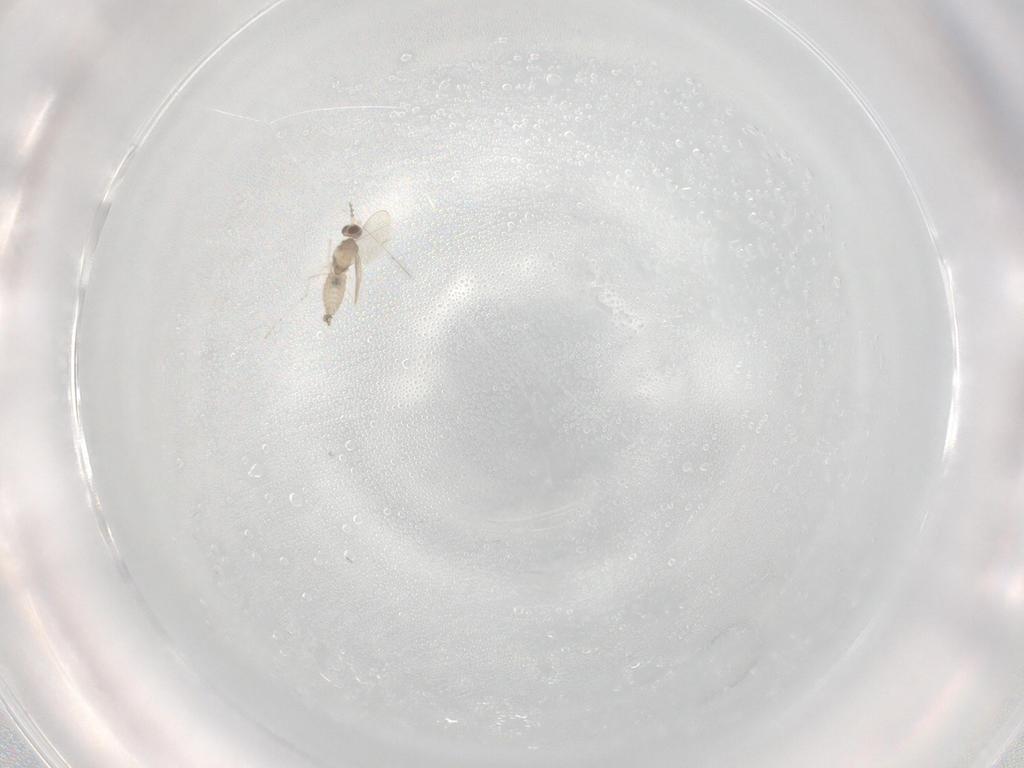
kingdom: Animalia
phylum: Arthropoda
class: Insecta
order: Diptera
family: Cecidomyiidae
